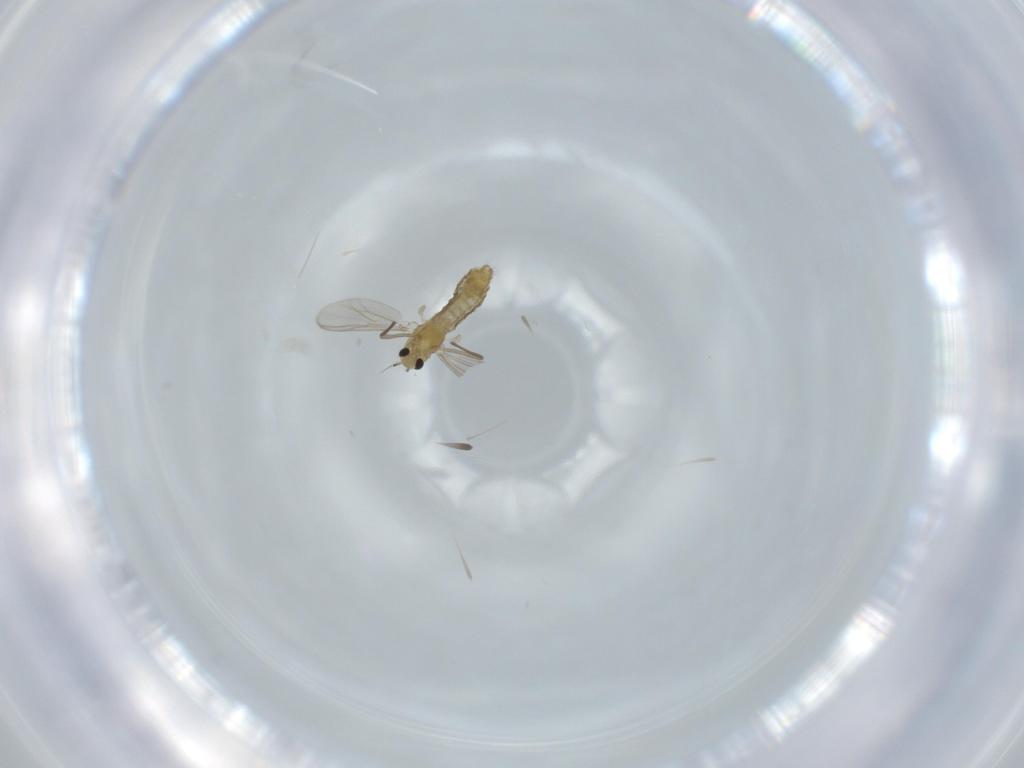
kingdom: Animalia
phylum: Arthropoda
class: Insecta
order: Diptera
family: Chironomidae
